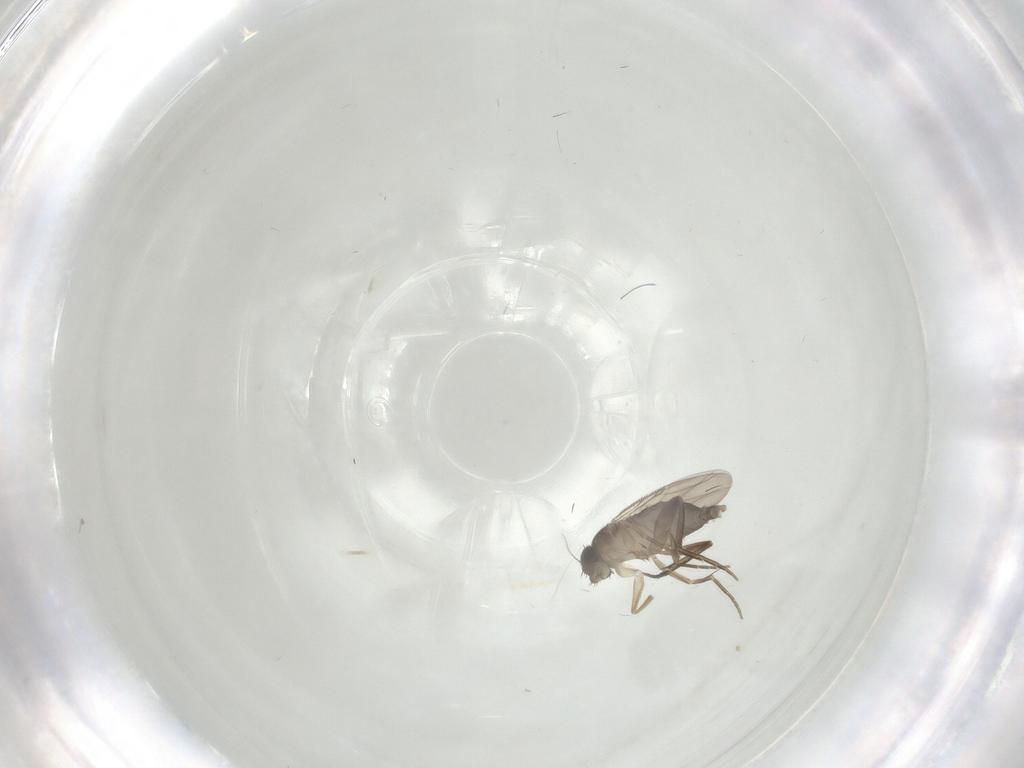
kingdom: Animalia
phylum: Arthropoda
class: Insecta
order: Diptera
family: Phoridae
